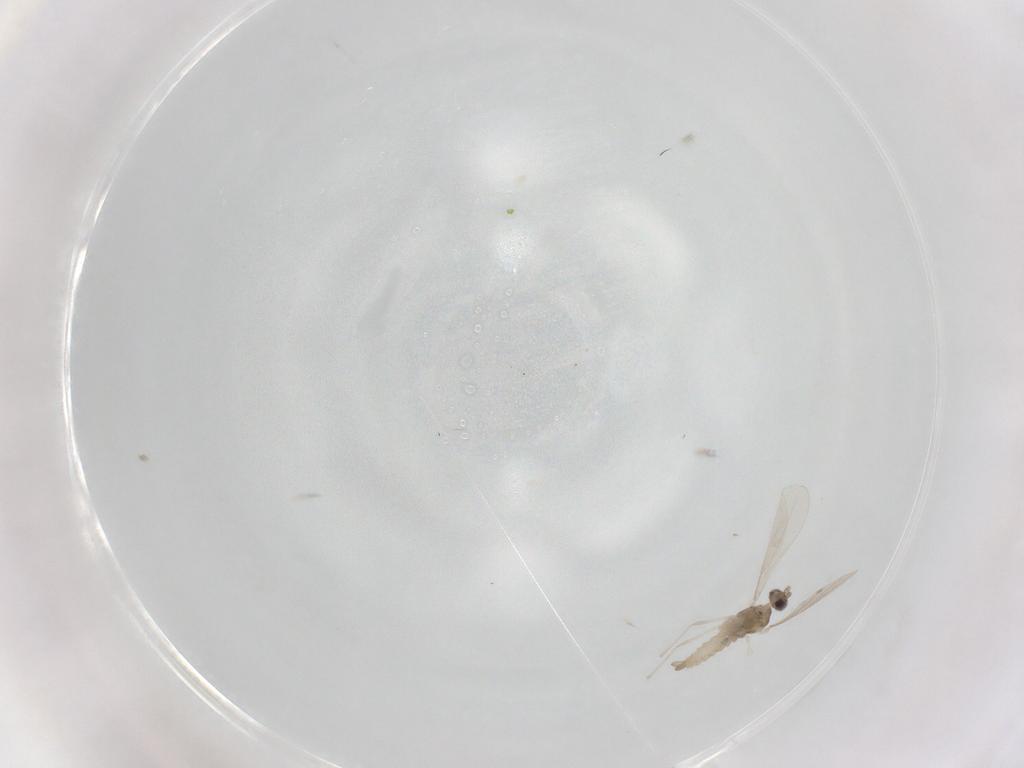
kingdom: Animalia
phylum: Arthropoda
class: Insecta
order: Diptera
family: Cecidomyiidae
